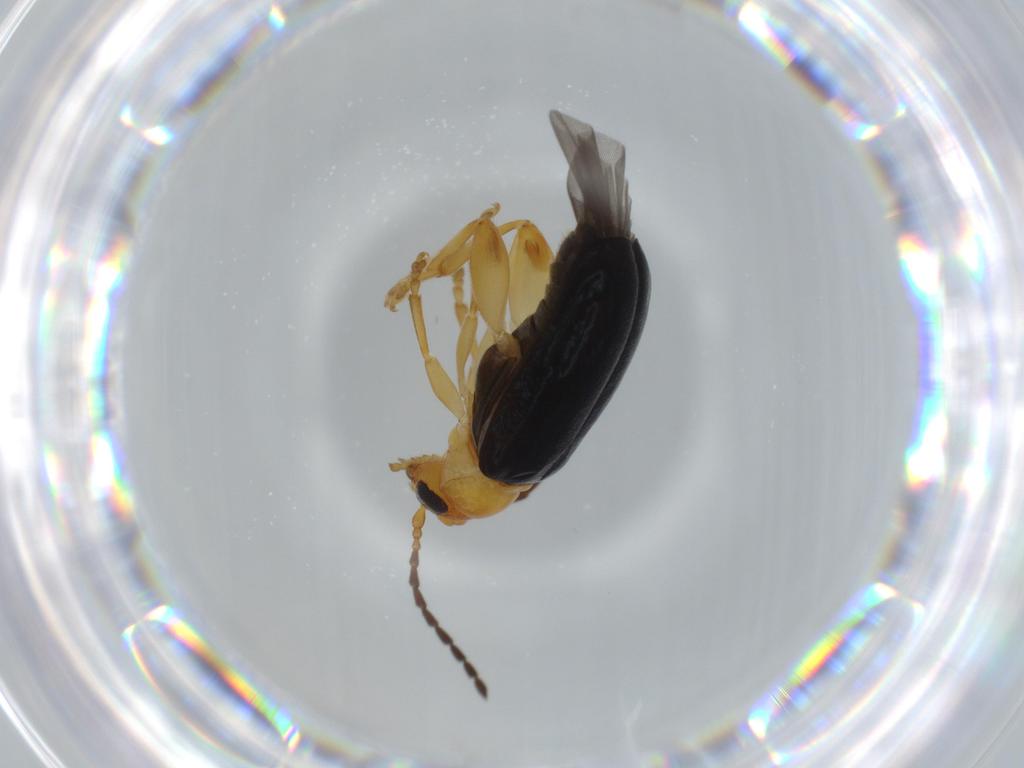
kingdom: Animalia
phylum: Arthropoda
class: Insecta
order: Coleoptera
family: Chrysomelidae
